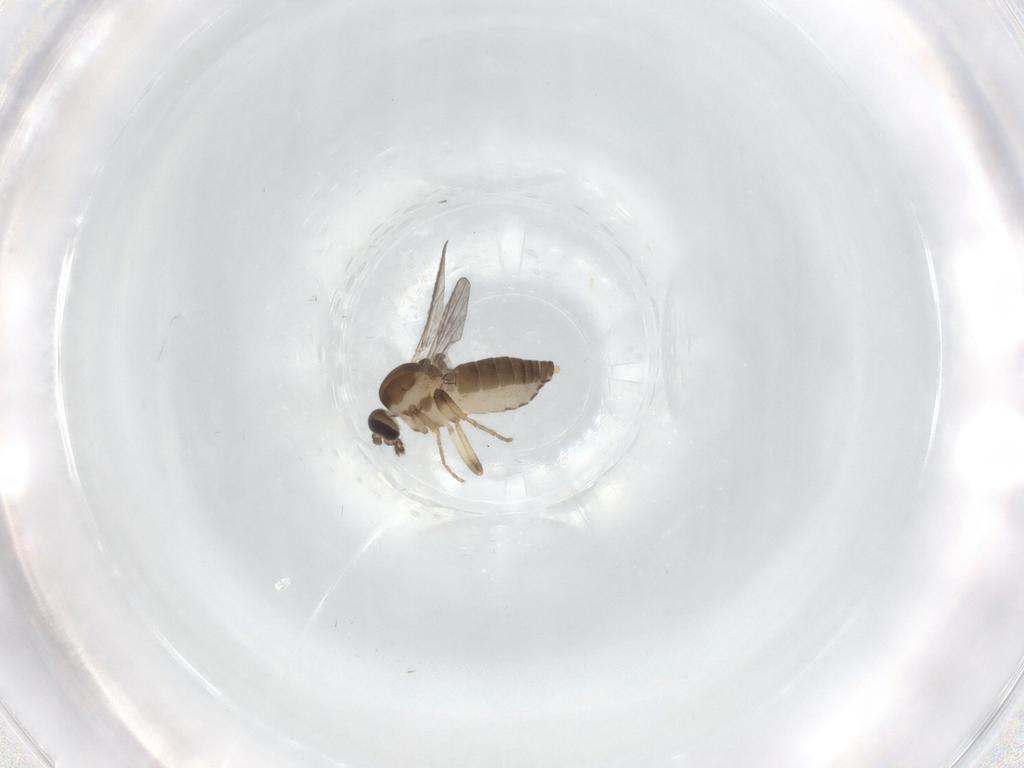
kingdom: Animalia
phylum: Arthropoda
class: Insecta
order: Diptera
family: Ceratopogonidae
